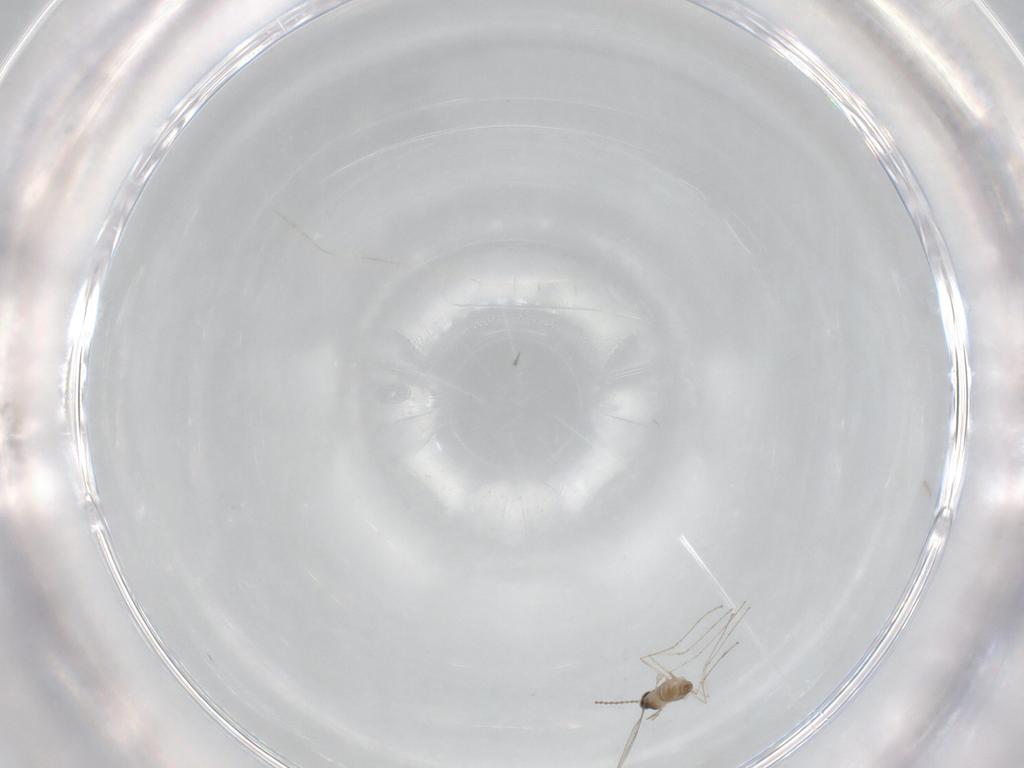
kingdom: Animalia
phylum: Arthropoda
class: Insecta
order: Diptera
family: Cecidomyiidae
